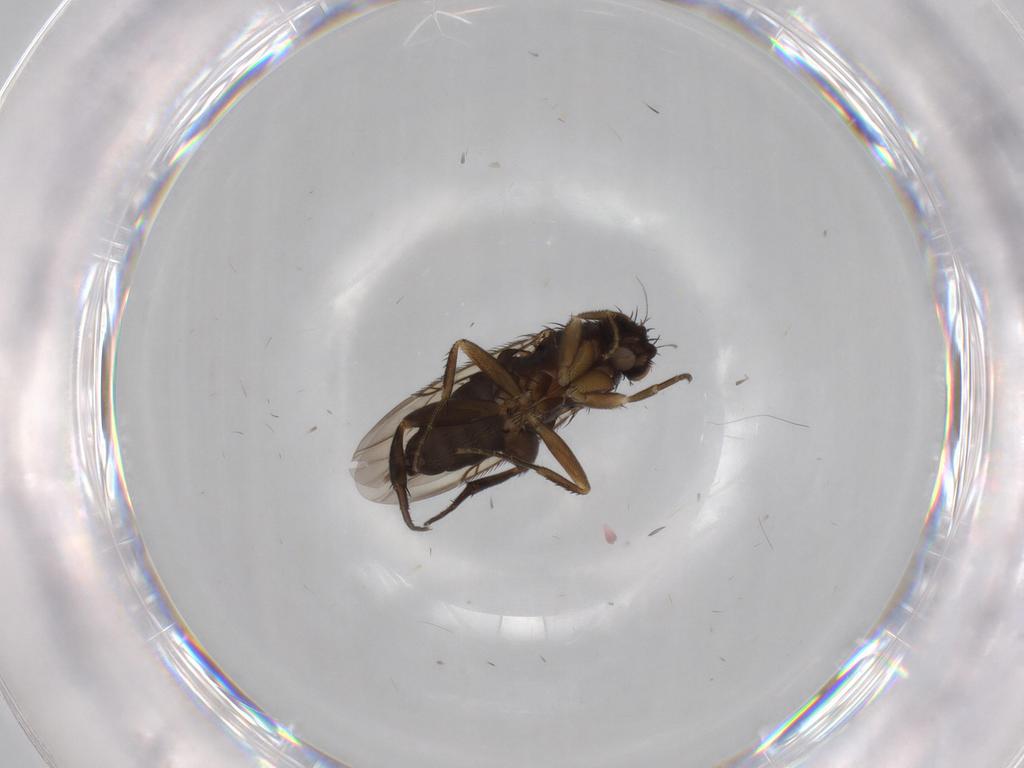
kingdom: Animalia
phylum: Arthropoda
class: Insecta
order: Diptera
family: Phoridae
